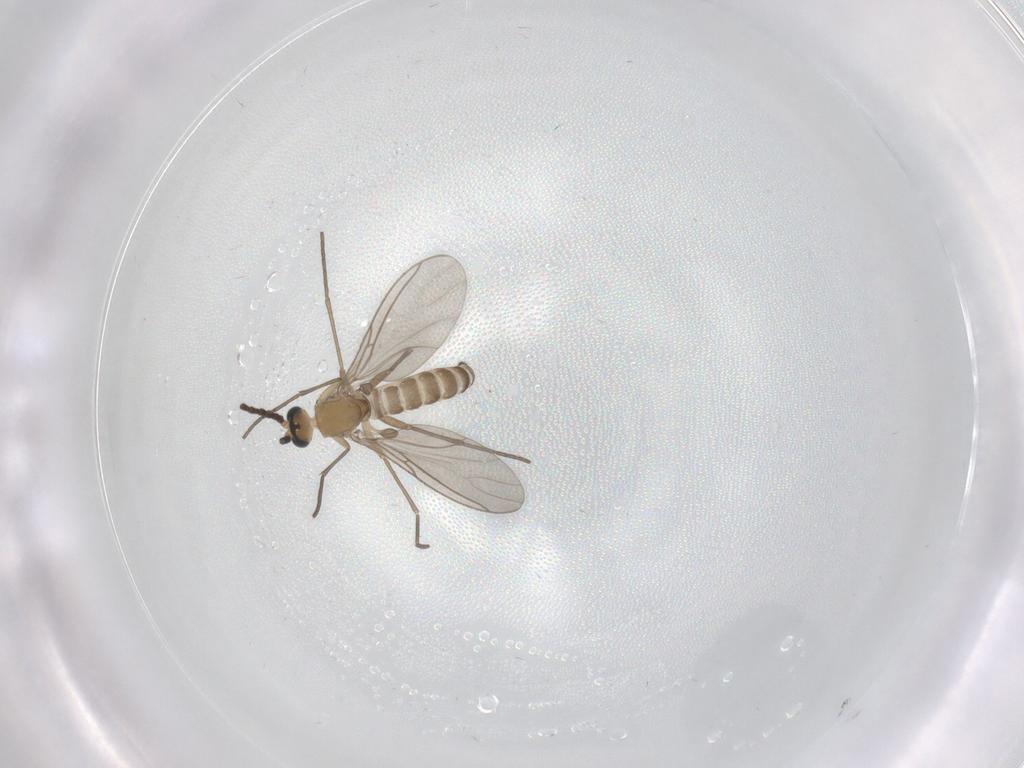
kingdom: Animalia
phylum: Arthropoda
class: Insecta
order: Diptera
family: Sciaridae
